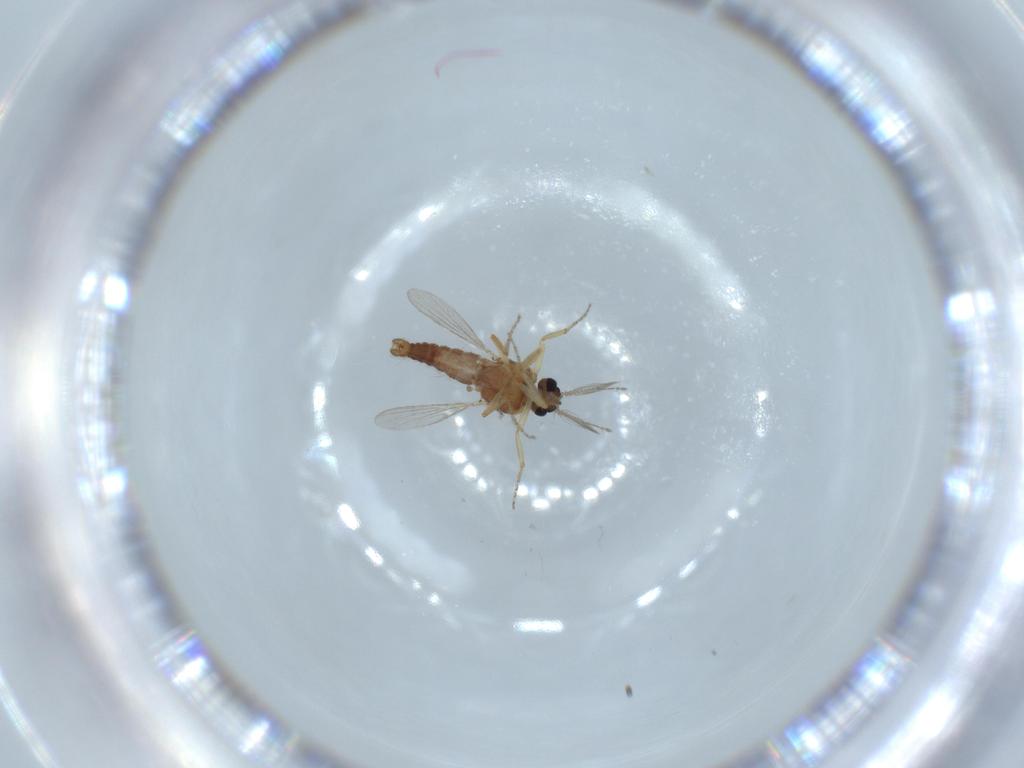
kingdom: Animalia
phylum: Arthropoda
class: Insecta
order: Diptera
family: Ceratopogonidae
